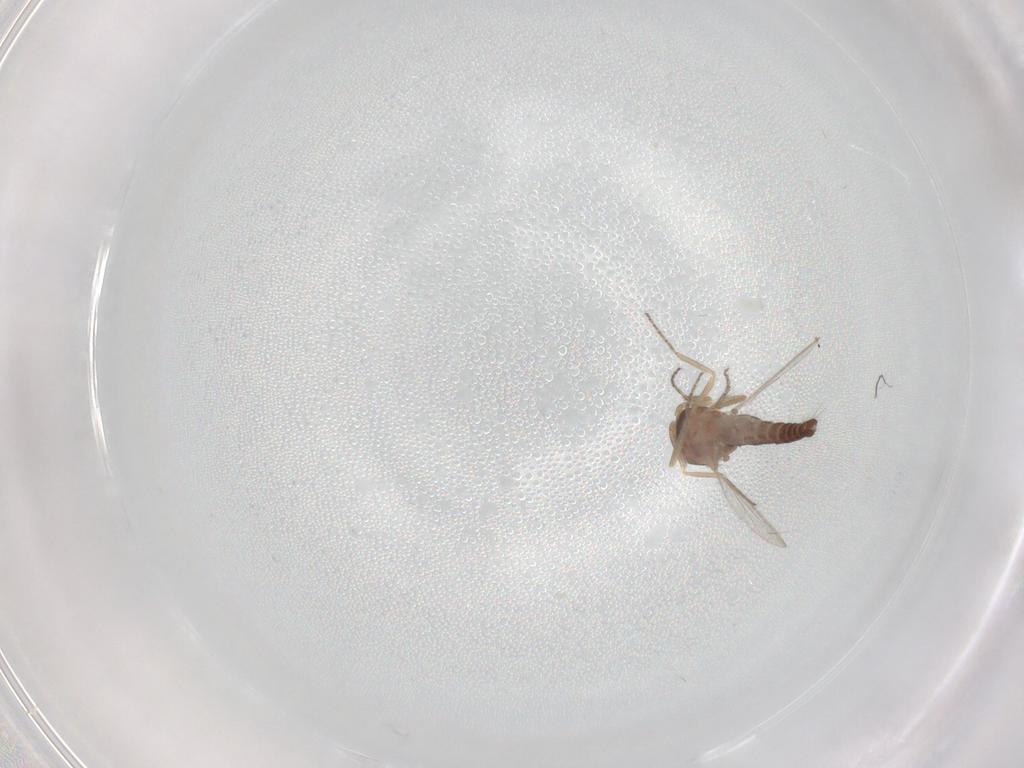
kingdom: Animalia
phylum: Arthropoda
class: Insecta
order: Diptera
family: Ceratopogonidae
